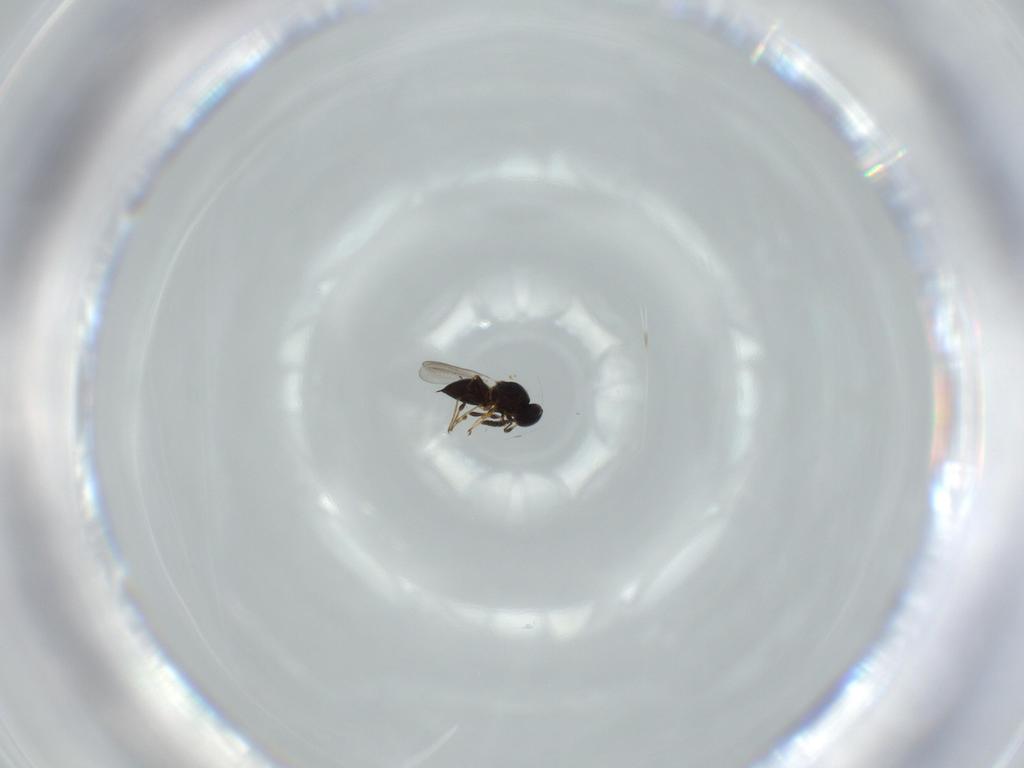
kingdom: Animalia
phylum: Arthropoda
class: Insecta
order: Hymenoptera
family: Platygastridae
